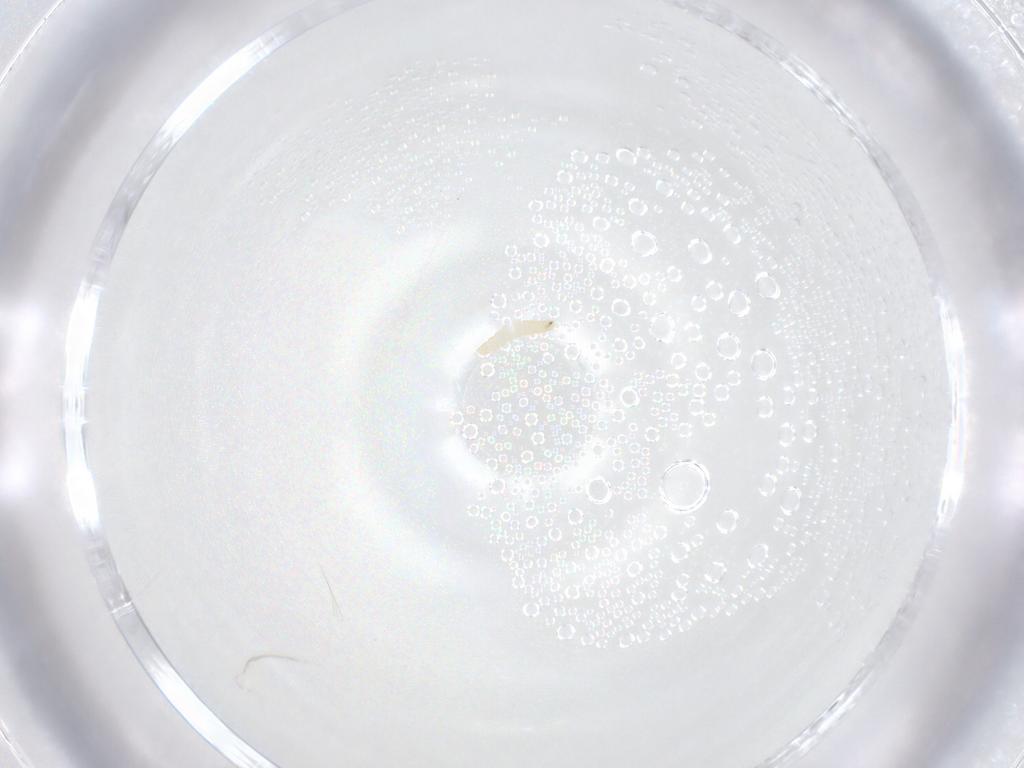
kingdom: Animalia
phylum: Arthropoda
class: Insecta
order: Diptera
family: Tachinidae
